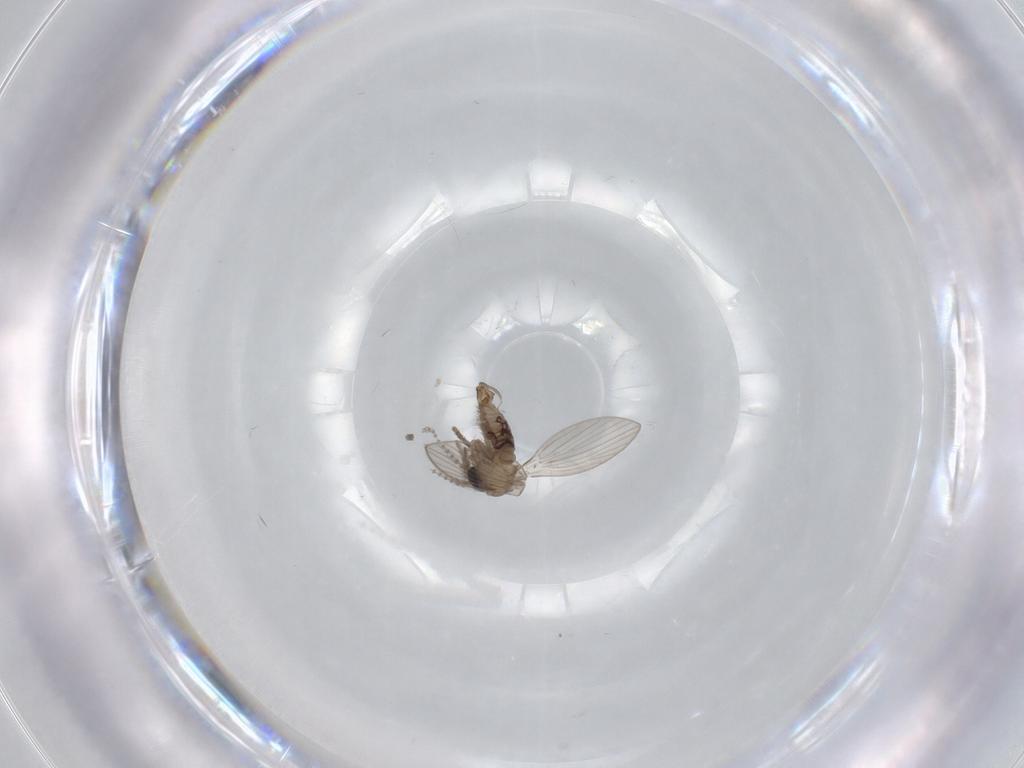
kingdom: Animalia
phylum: Arthropoda
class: Insecta
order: Diptera
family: Psychodidae
